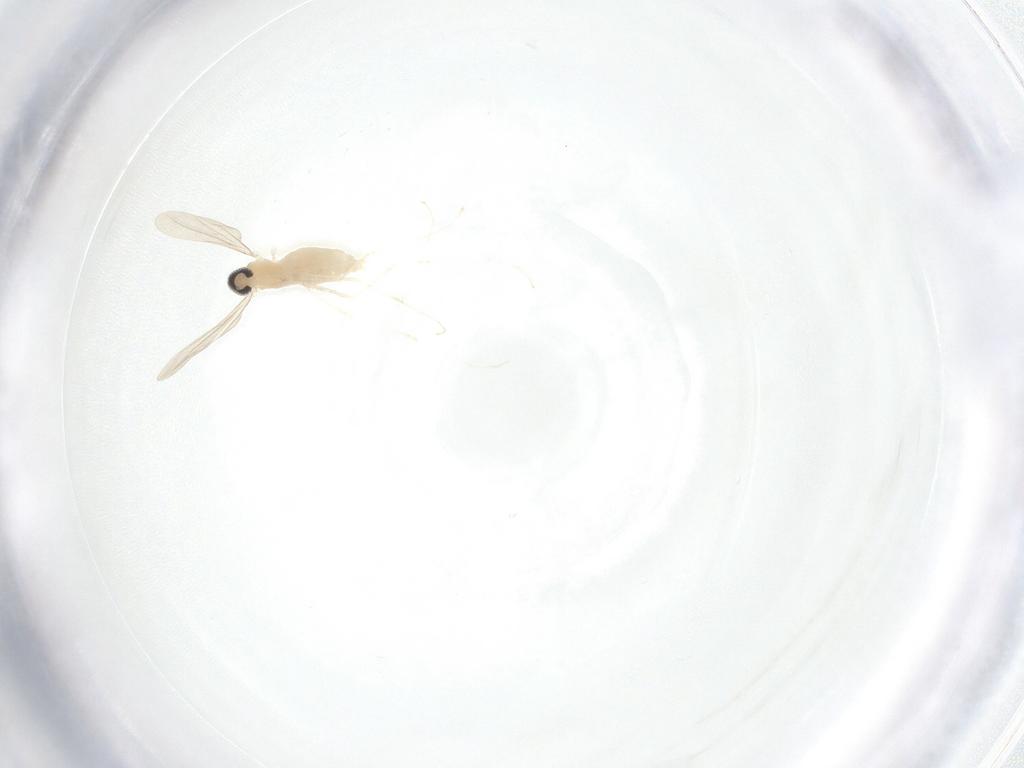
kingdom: Animalia
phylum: Arthropoda
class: Insecta
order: Diptera
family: Cecidomyiidae
